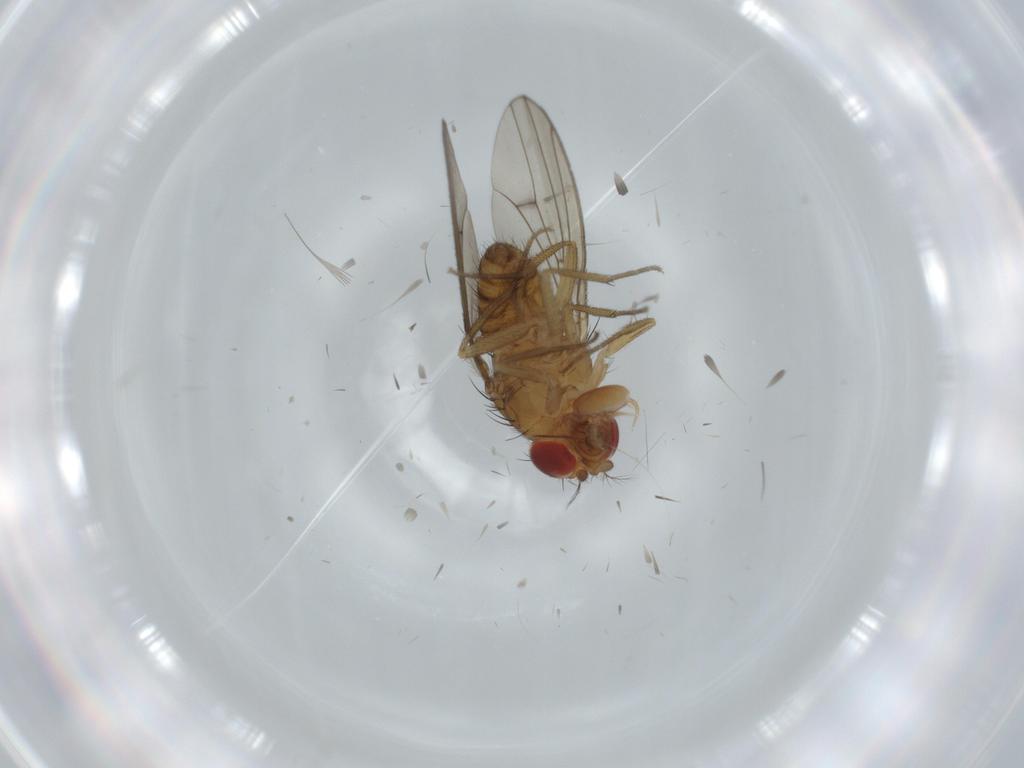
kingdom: Animalia
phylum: Arthropoda
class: Insecta
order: Diptera
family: Drosophilidae
